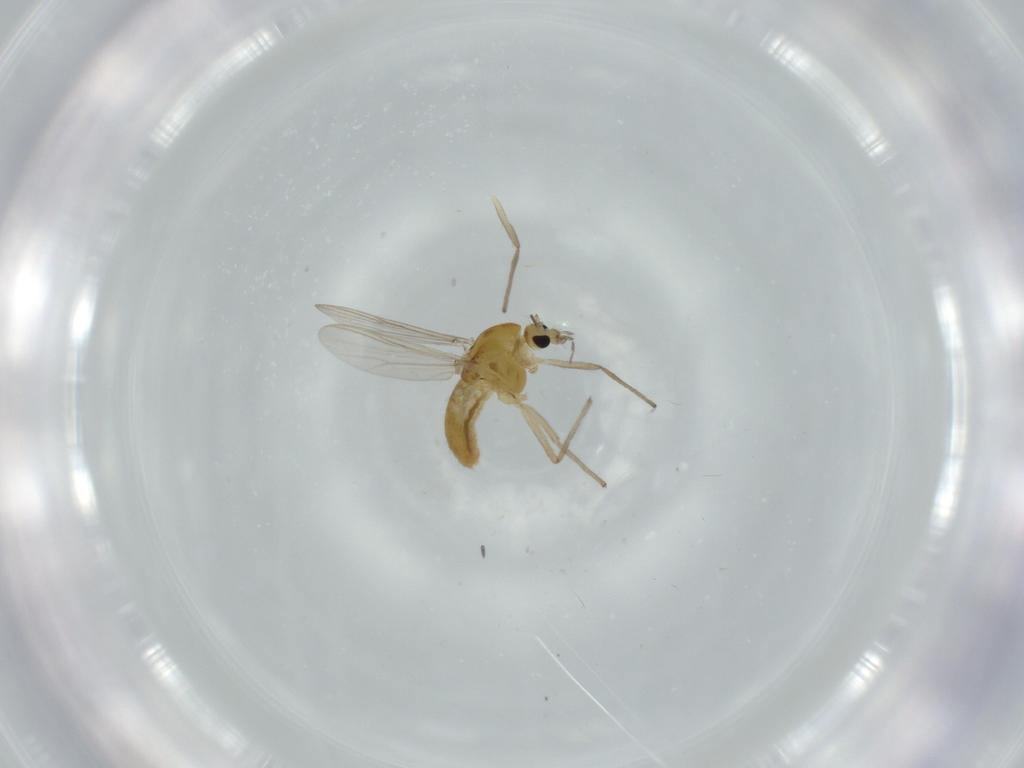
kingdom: Animalia
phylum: Arthropoda
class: Insecta
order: Diptera
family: Chironomidae
